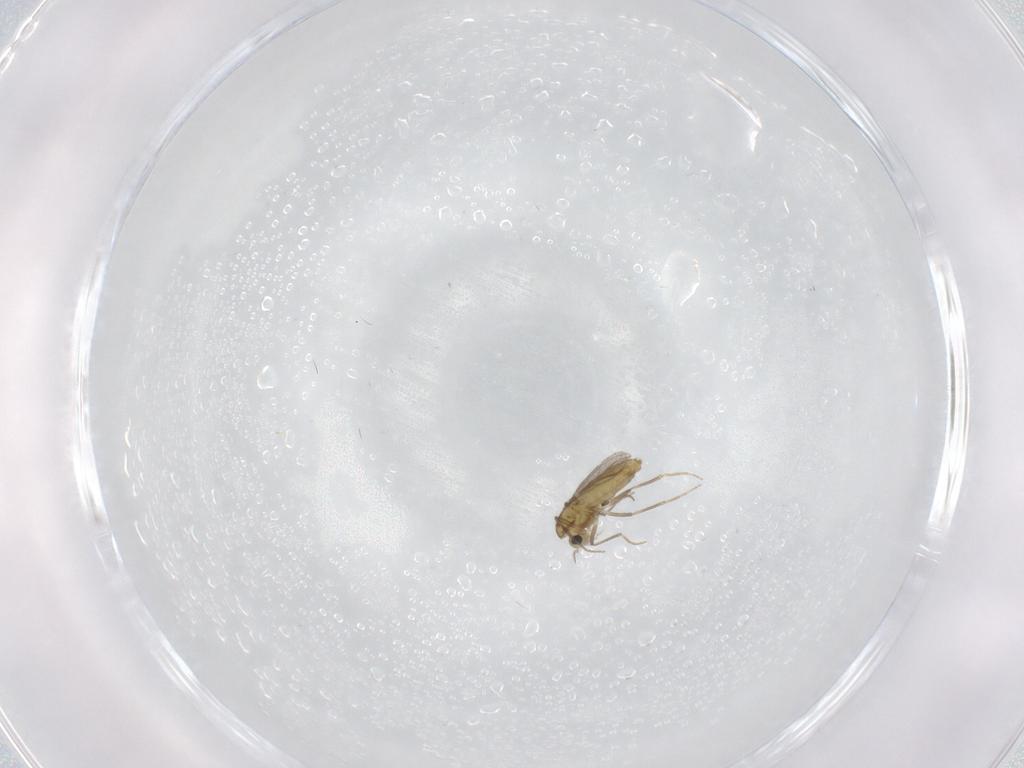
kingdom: Animalia
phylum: Arthropoda
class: Insecta
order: Diptera
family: Chironomidae
